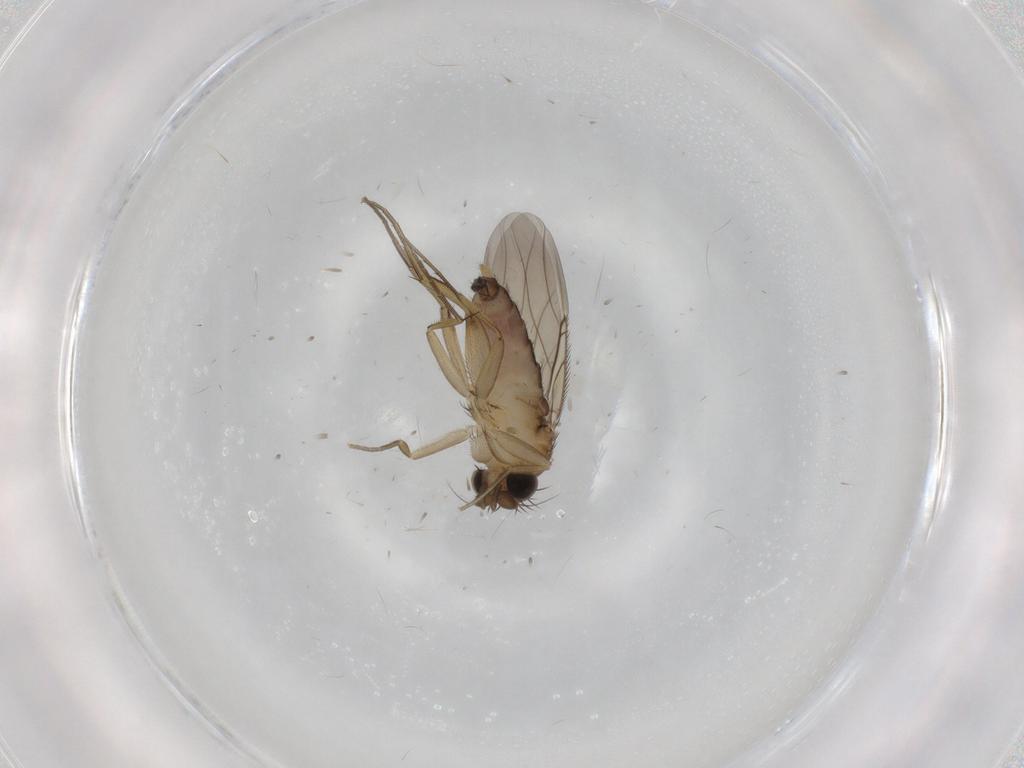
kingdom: Animalia
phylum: Arthropoda
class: Insecta
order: Diptera
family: Phoridae
